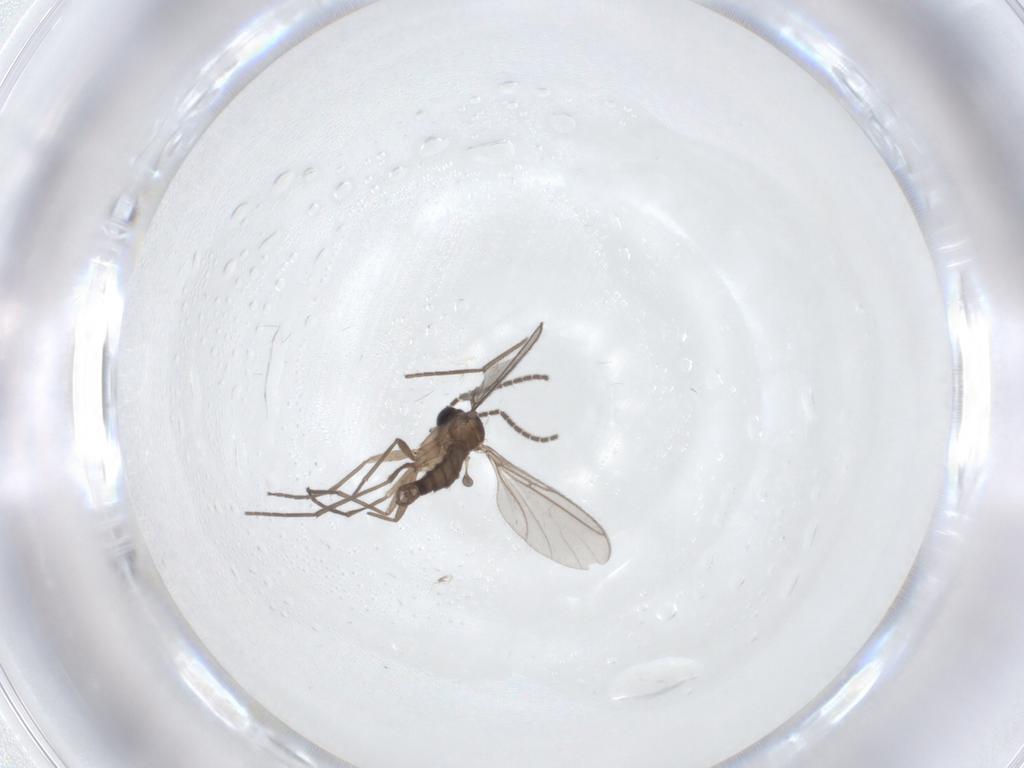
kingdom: Animalia
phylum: Arthropoda
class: Insecta
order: Diptera
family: Sciaridae
